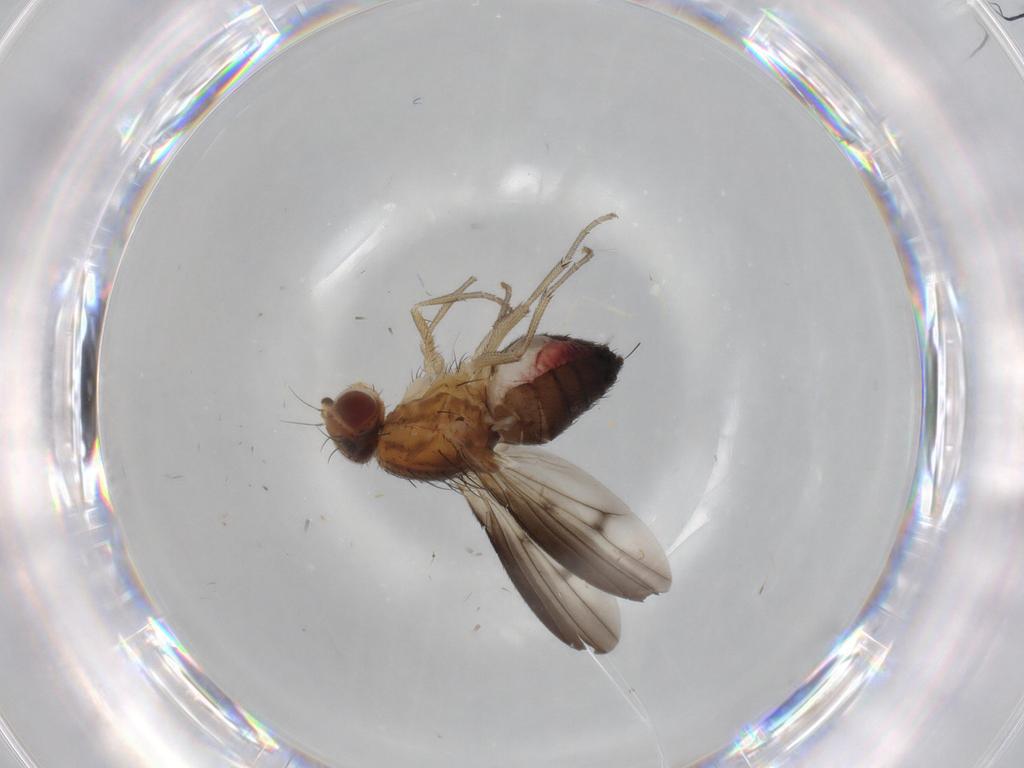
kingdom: Animalia
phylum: Arthropoda
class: Insecta
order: Diptera
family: Heleomyzidae
